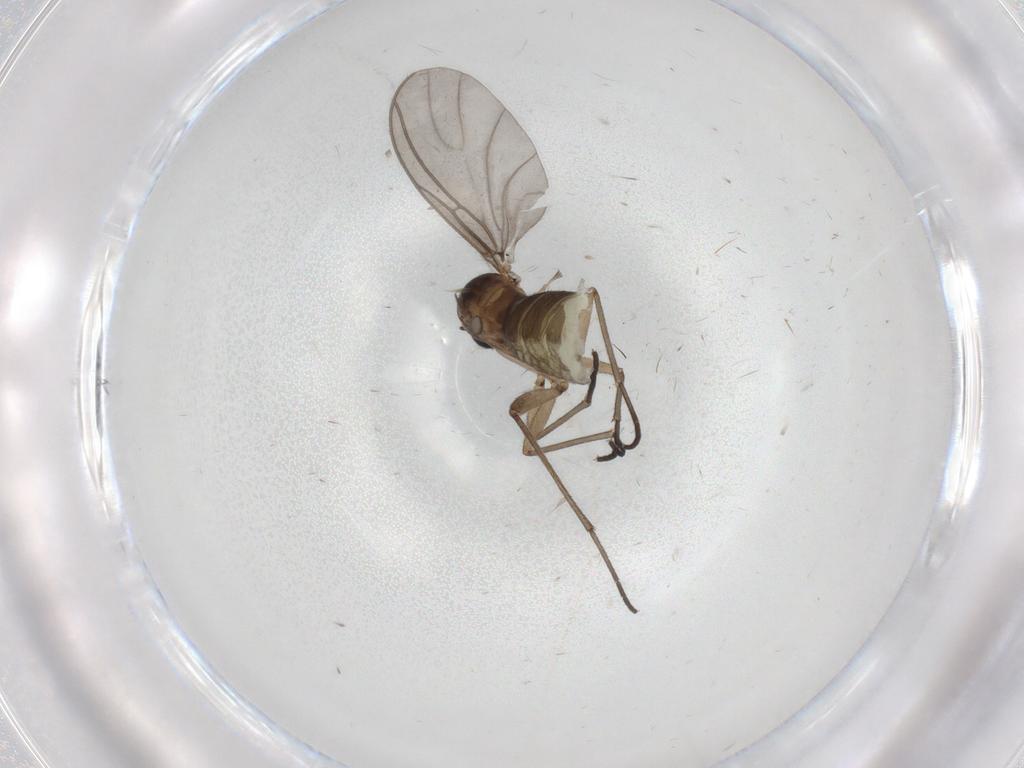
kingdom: Animalia
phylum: Arthropoda
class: Insecta
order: Diptera
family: Chironomidae
